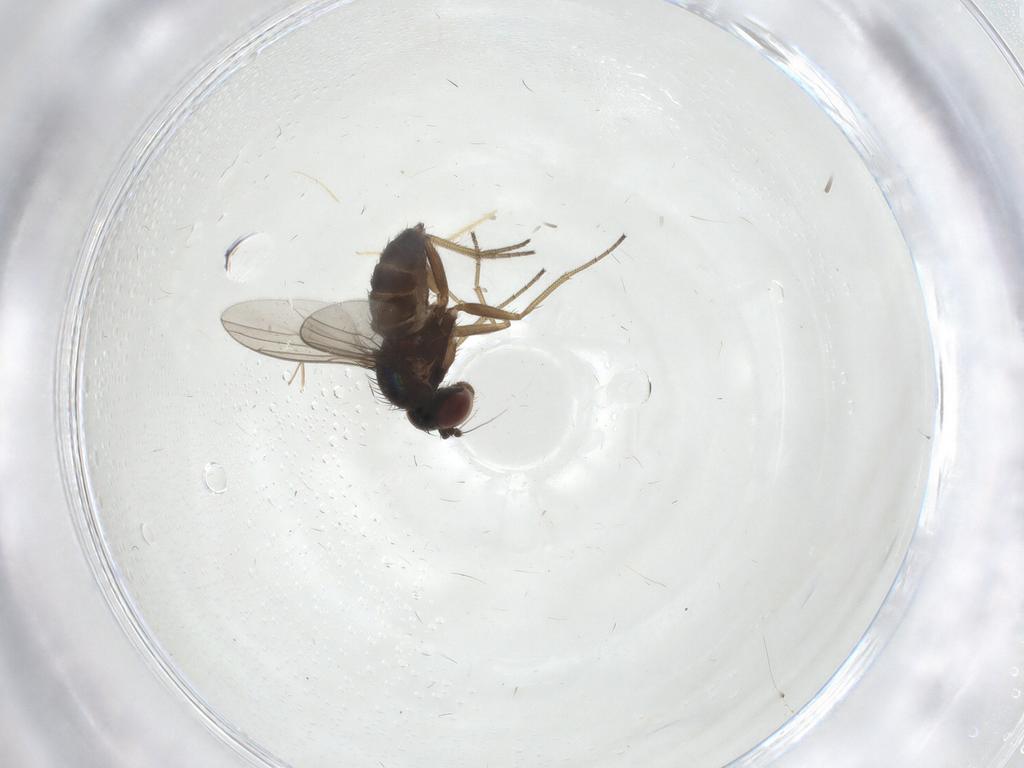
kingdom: Animalia
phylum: Arthropoda
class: Insecta
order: Diptera
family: Dolichopodidae
